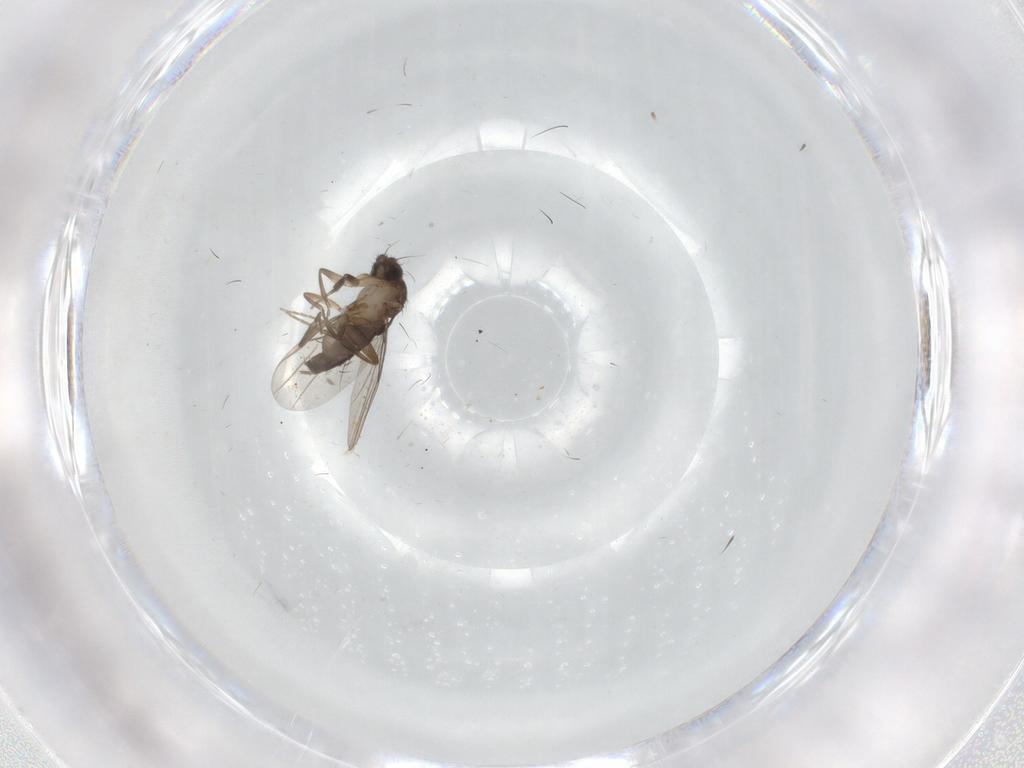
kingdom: Animalia
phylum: Arthropoda
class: Insecta
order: Diptera
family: Phoridae
